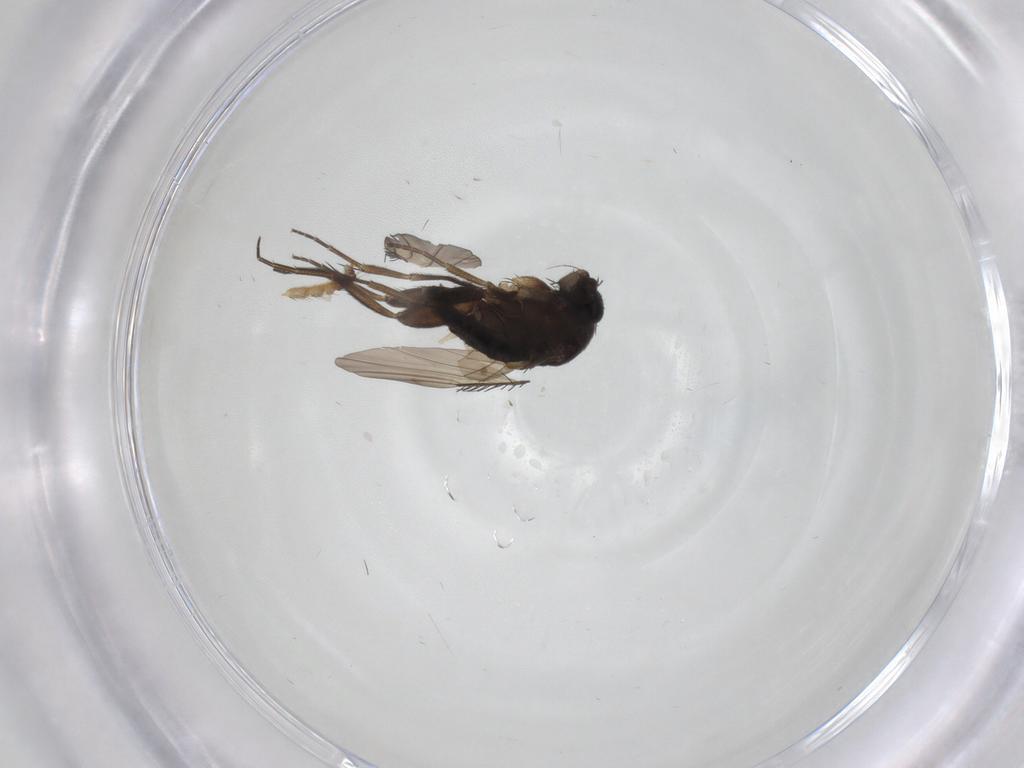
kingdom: Animalia
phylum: Arthropoda
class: Insecta
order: Diptera
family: Phoridae
